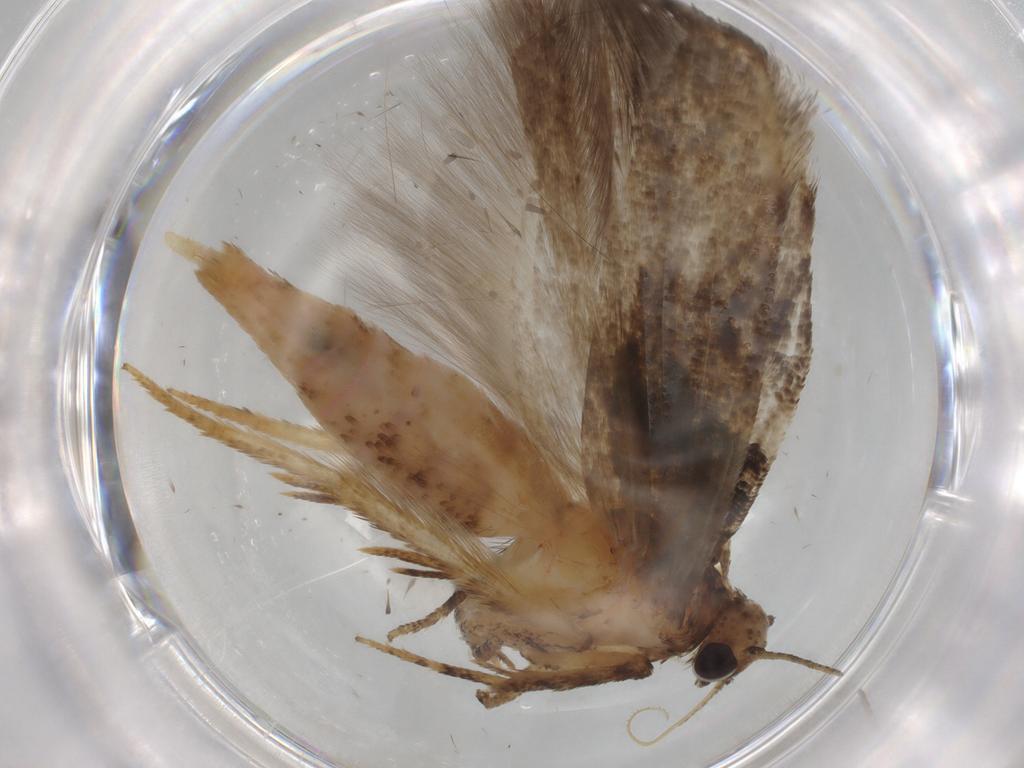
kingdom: Animalia
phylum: Arthropoda
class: Insecta
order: Lepidoptera
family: Gelechiidae
